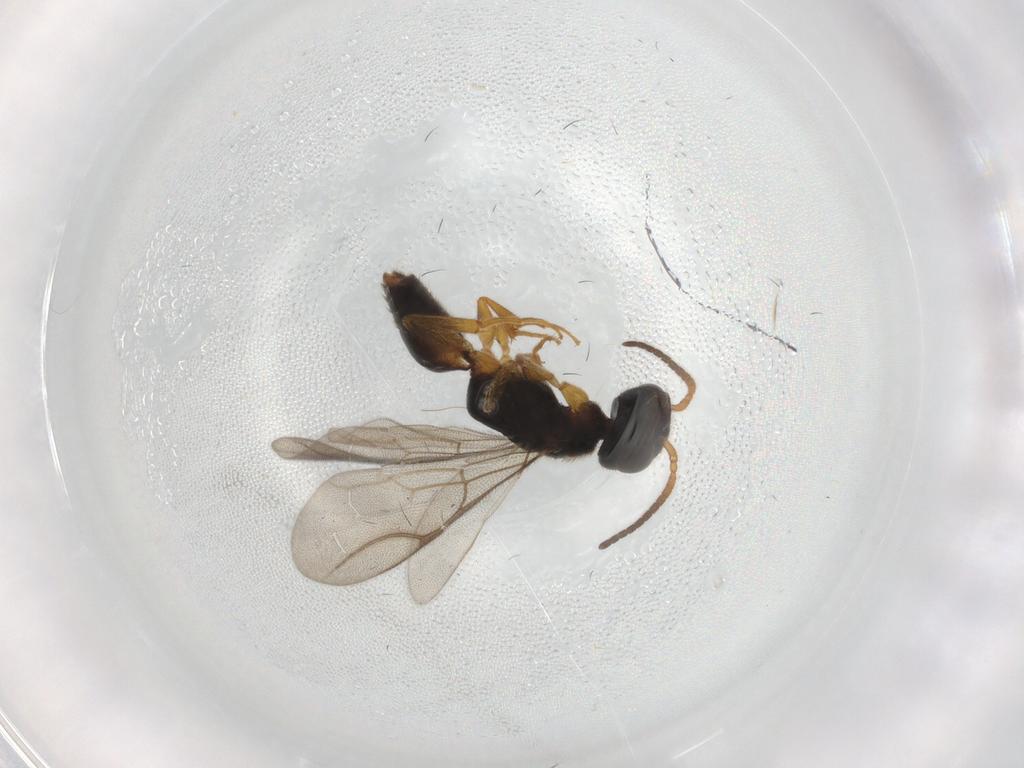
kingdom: Animalia
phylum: Arthropoda
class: Insecta
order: Hymenoptera
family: Bethylidae
